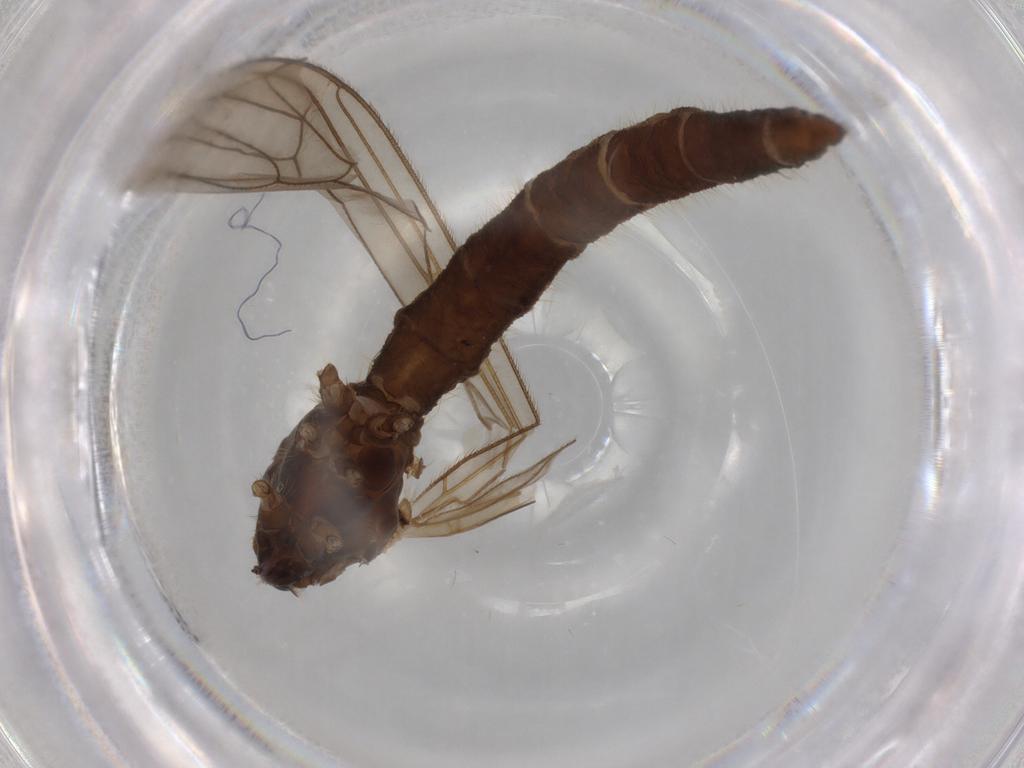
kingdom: Animalia
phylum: Arthropoda
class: Insecta
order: Diptera
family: Trichoceridae
